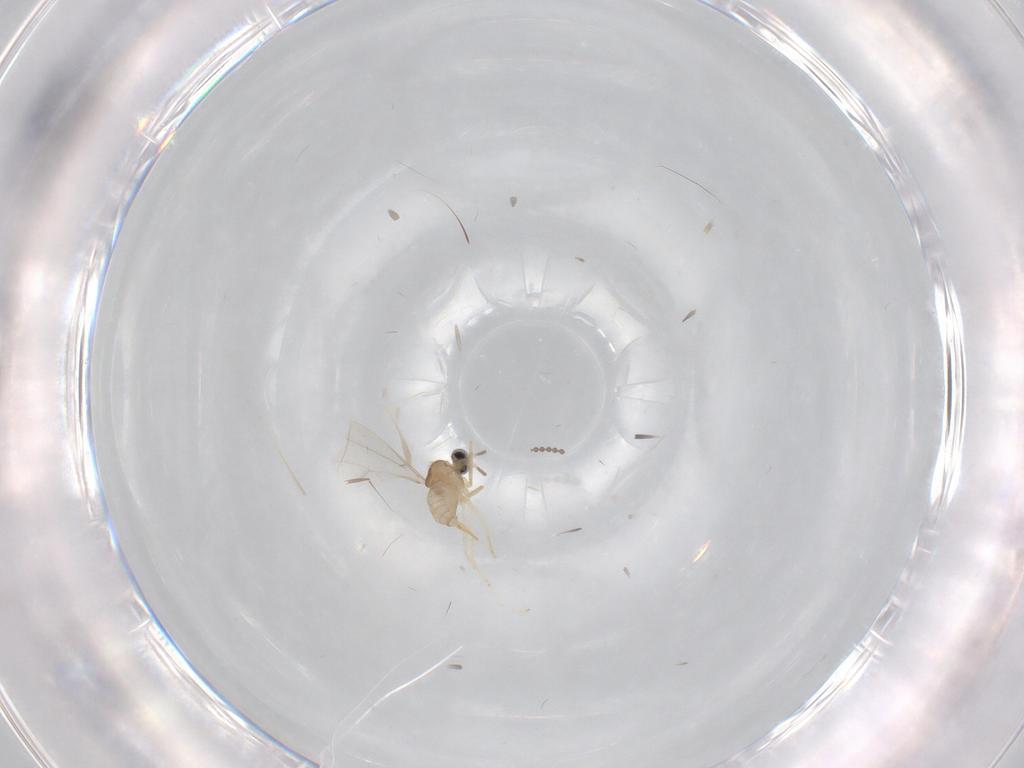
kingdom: Animalia
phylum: Arthropoda
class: Insecta
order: Diptera
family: Cecidomyiidae
